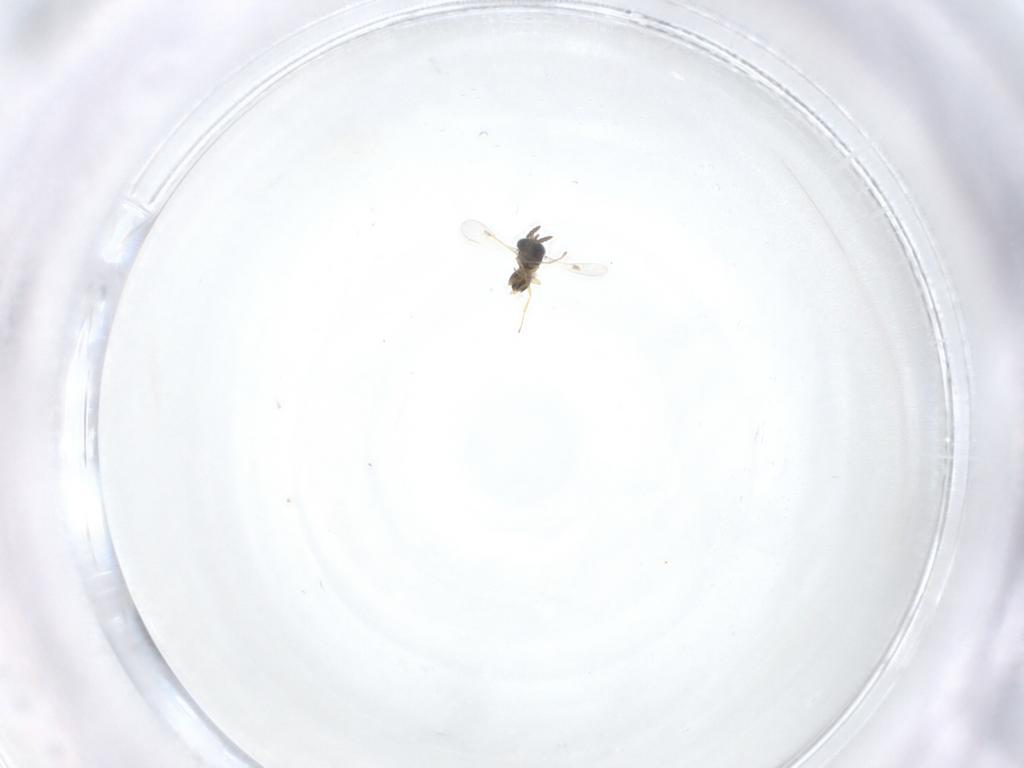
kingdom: Animalia
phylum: Arthropoda
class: Insecta
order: Hymenoptera
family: Scelionidae
